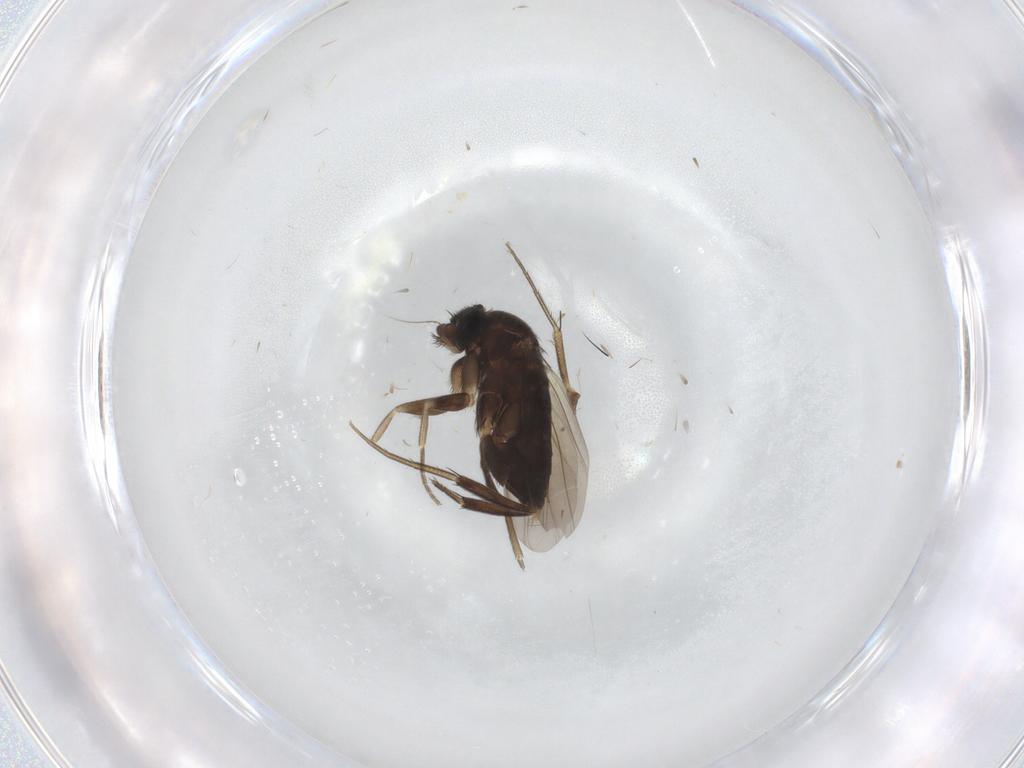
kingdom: Animalia
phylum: Arthropoda
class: Insecta
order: Diptera
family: Phoridae
